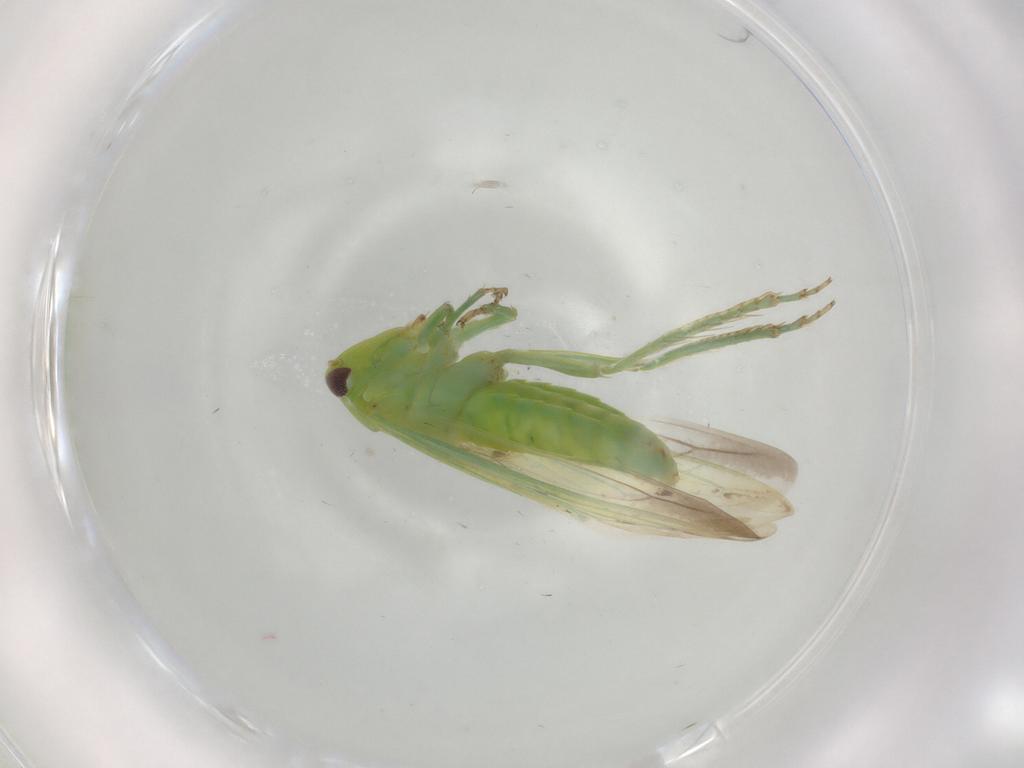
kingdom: Animalia
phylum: Arthropoda
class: Insecta
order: Hemiptera
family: Cicadellidae
